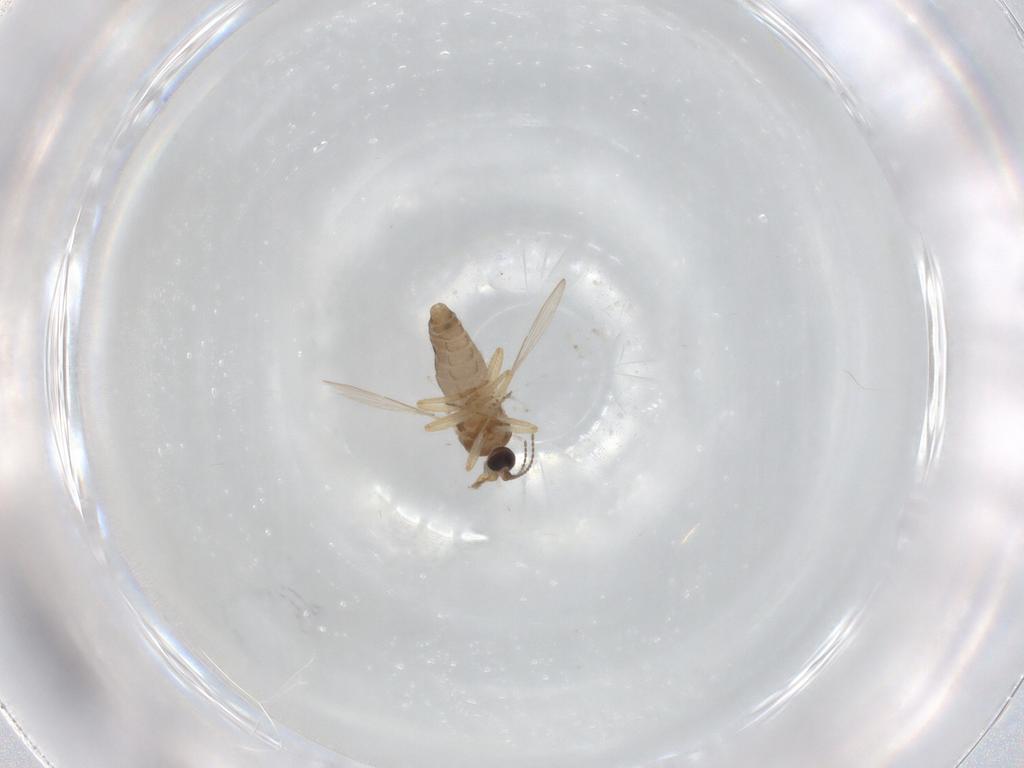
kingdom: Animalia
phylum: Arthropoda
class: Insecta
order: Diptera
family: Ceratopogonidae
